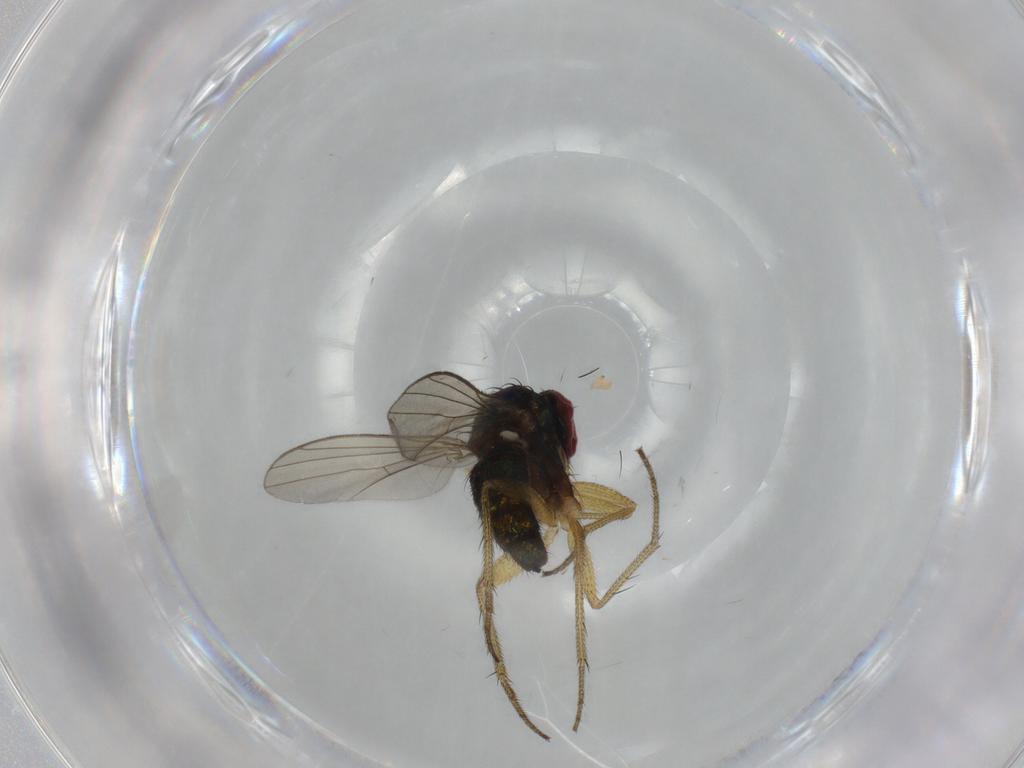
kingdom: Animalia
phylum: Arthropoda
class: Insecta
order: Diptera
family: Dolichopodidae
